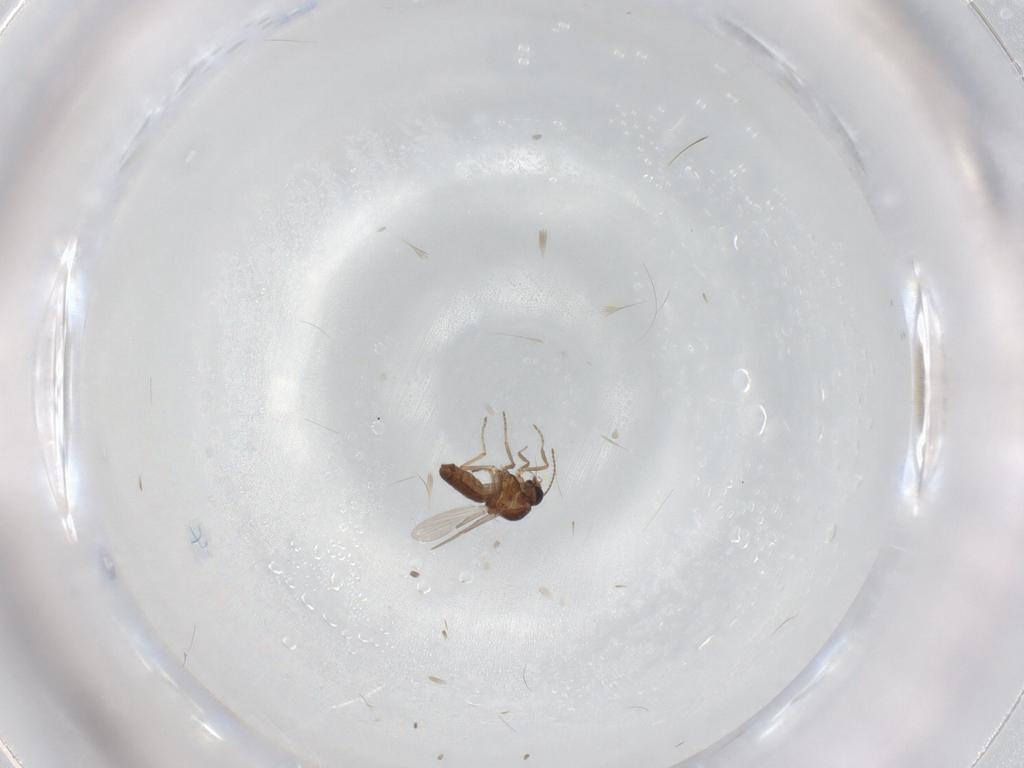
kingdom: Animalia
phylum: Arthropoda
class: Insecta
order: Diptera
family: Ceratopogonidae
